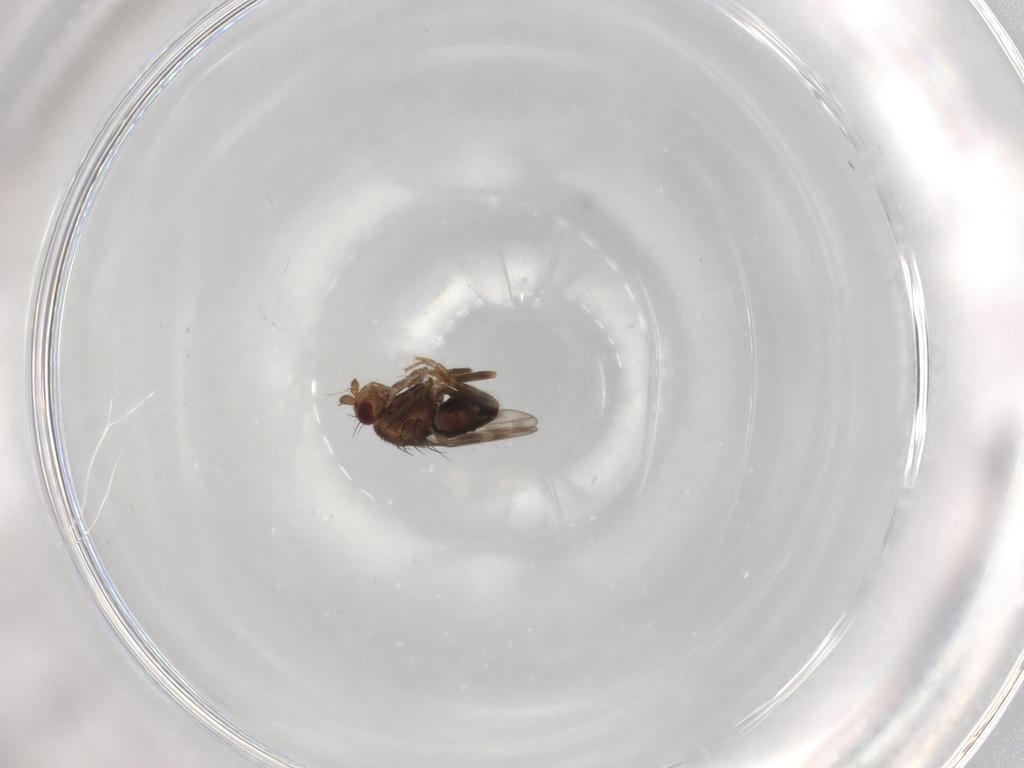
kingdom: Animalia
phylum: Arthropoda
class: Insecta
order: Diptera
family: Sphaeroceridae
